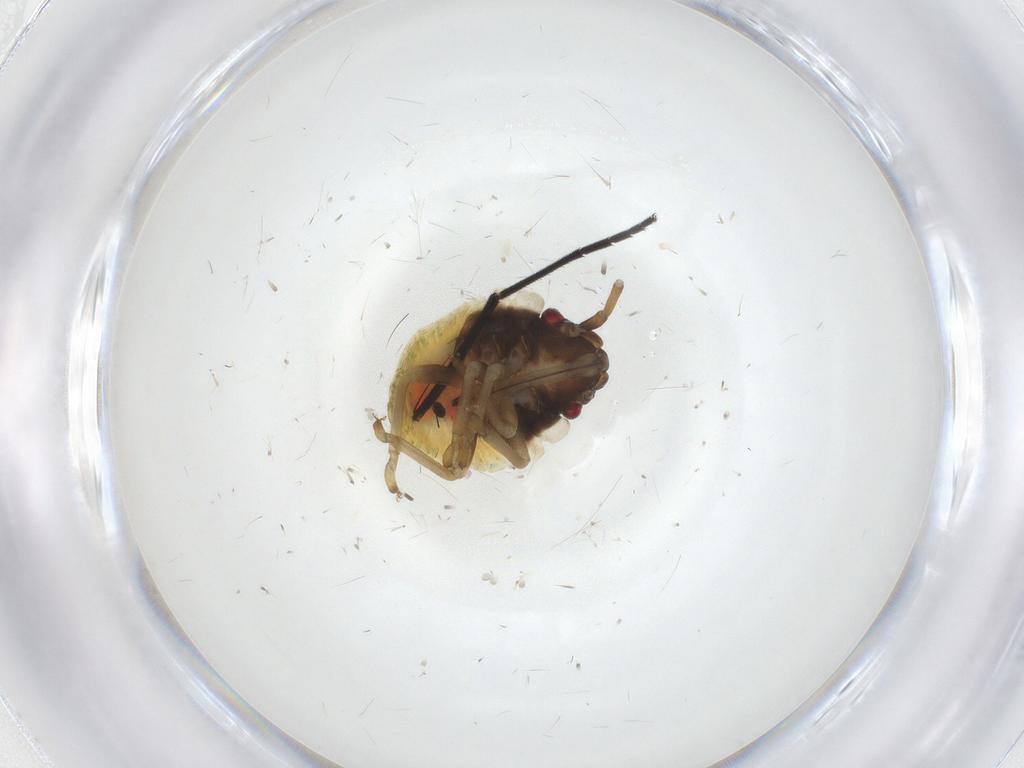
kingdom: Animalia
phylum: Arthropoda
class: Insecta
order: Hemiptera
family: Acanthosomatidae
